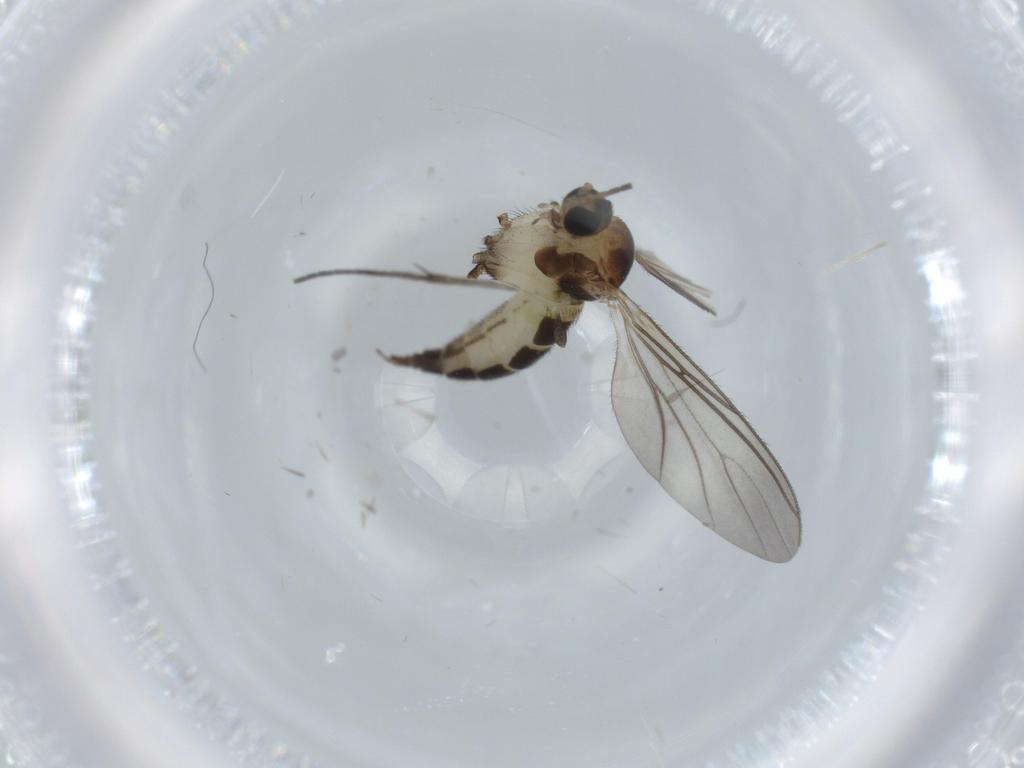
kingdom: Animalia
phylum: Arthropoda
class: Insecta
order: Diptera
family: Sciaridae
